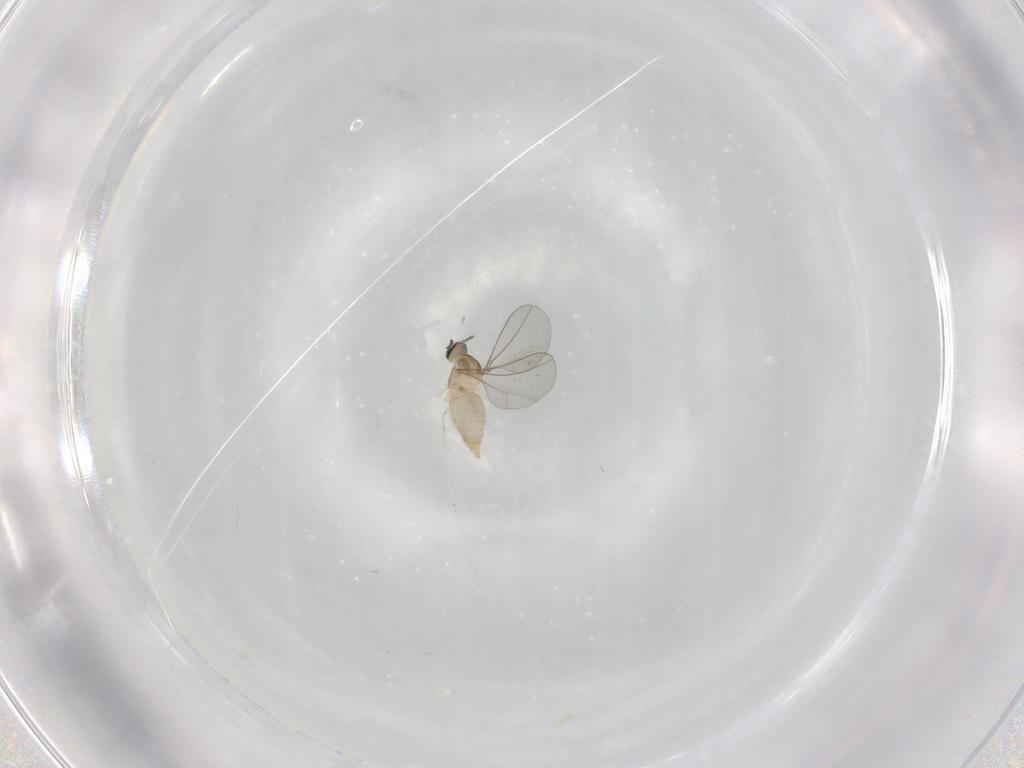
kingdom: Animalia
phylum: Arthropoda
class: Insecta
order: Diptera
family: Cecidomyiidae
